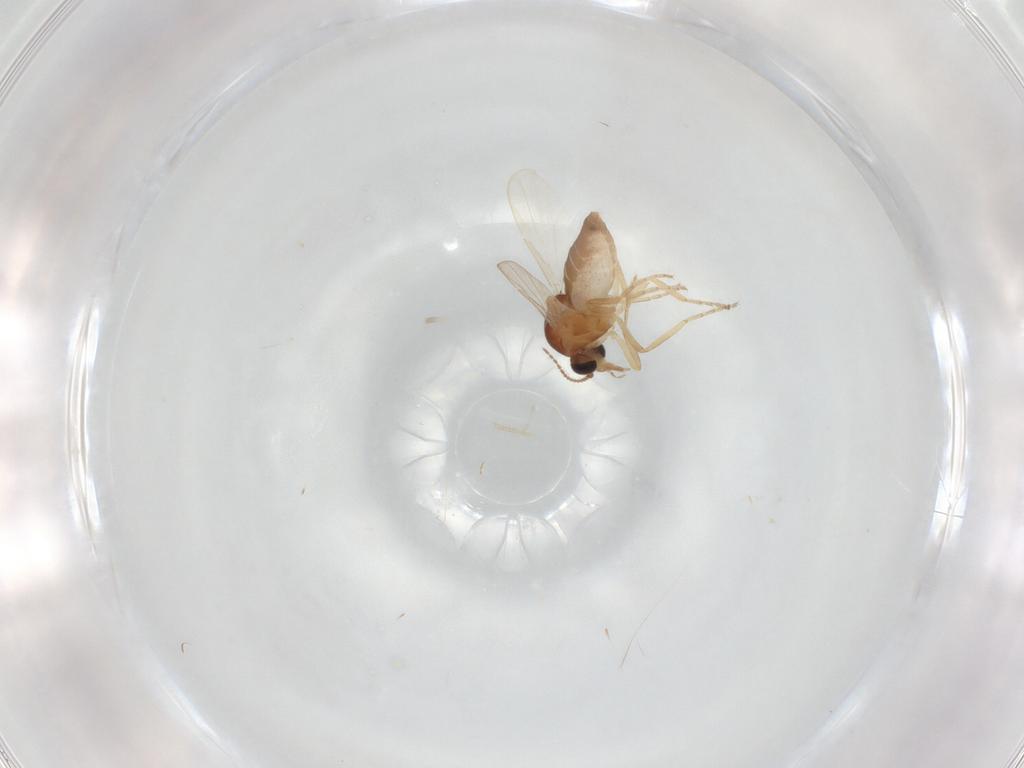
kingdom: Animalia
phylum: Arthropoda
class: Insecta
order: Diptera
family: Ceratopogonidae
